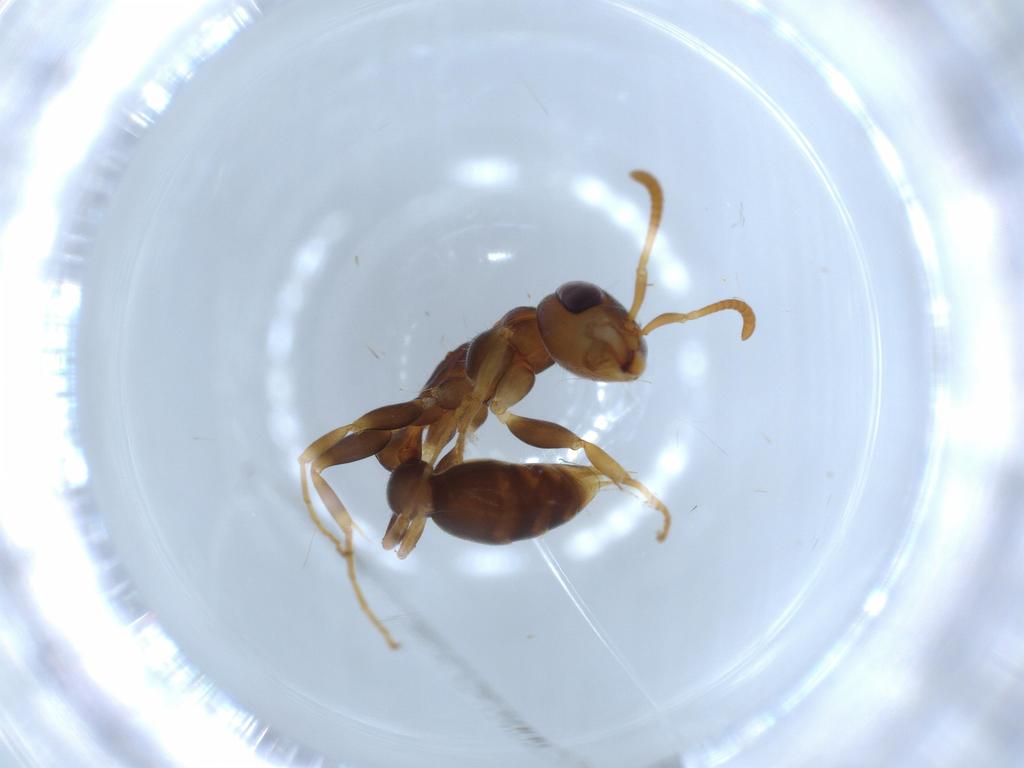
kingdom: Animalia
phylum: Arthropoda
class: Insecta
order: Hymenoptera
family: Formicidae
